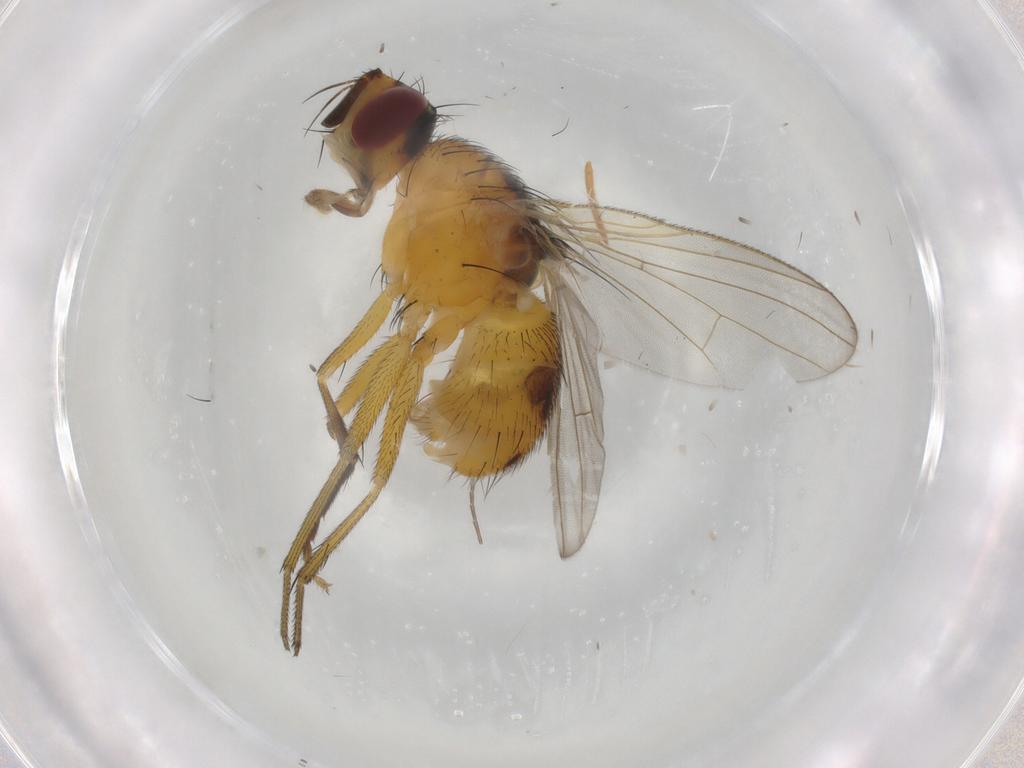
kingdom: Animalia
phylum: Arthropoda
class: Insecta
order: Diptera
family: Muscidae
